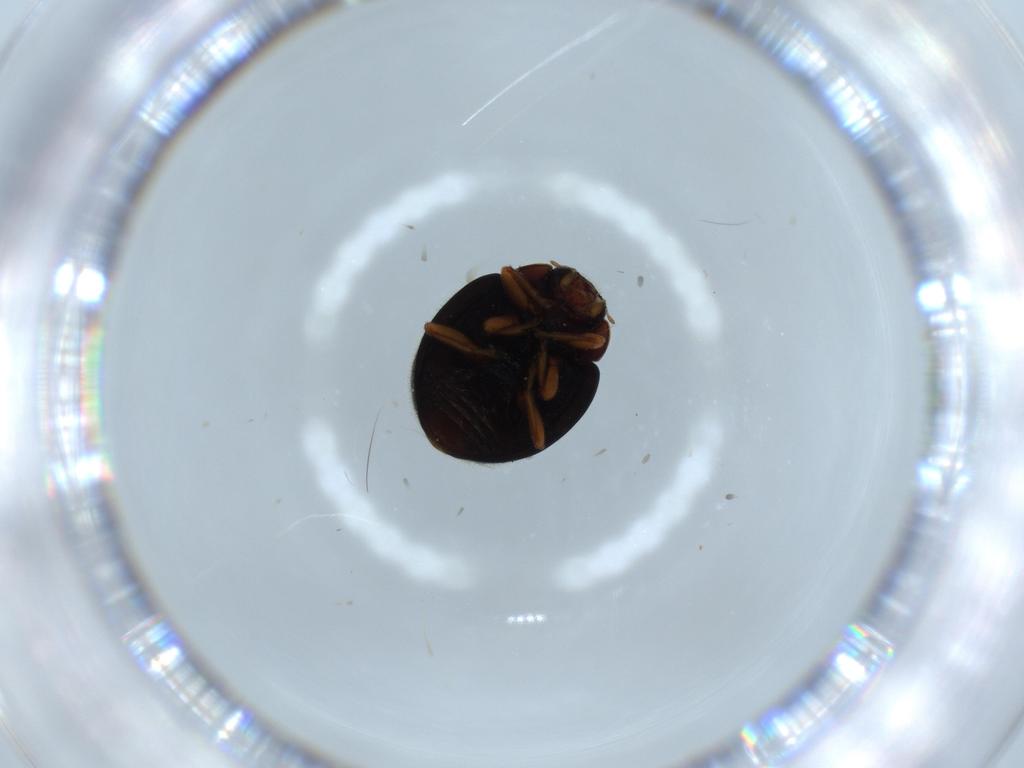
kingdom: Animalia
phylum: Arthropoda
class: Insecta
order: Coleoptera
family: Coccinellidae
